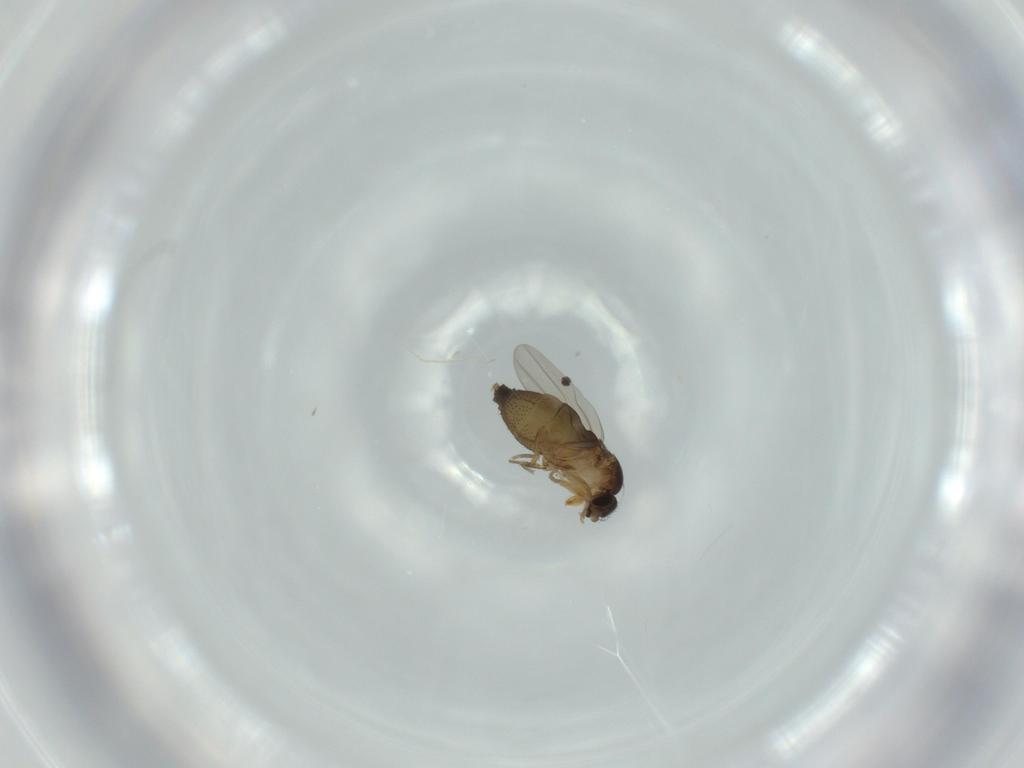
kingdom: Animalia
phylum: Arthropoda
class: Insecta
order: Diptera
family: Phoridae
